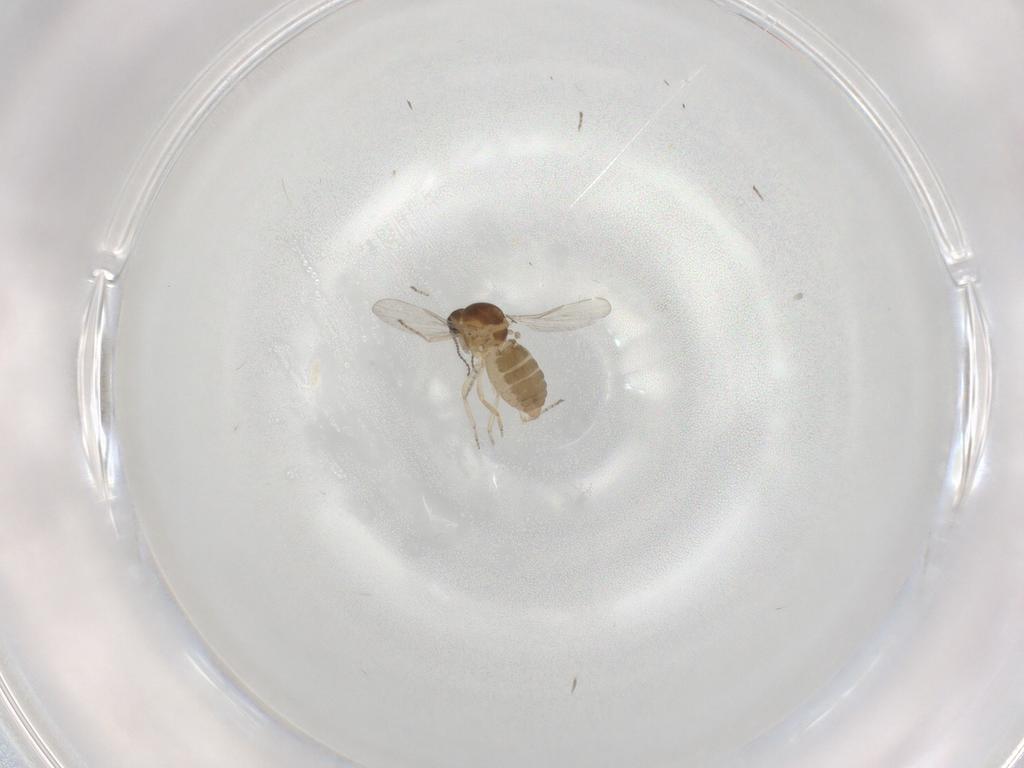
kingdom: Animalia
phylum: Arthropoda
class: Insecta
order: Diptera
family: Ceratopogonidae
